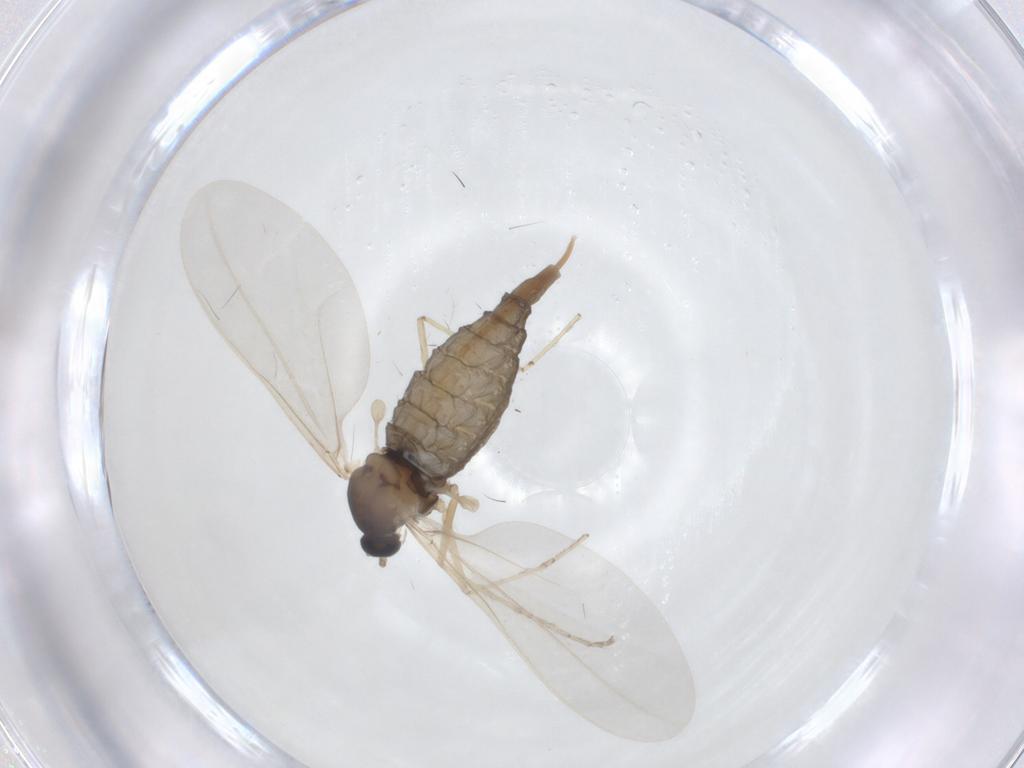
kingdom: Animalia
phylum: Arthropoda
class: Insecta
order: Diptera
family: Cecidomyiidae
